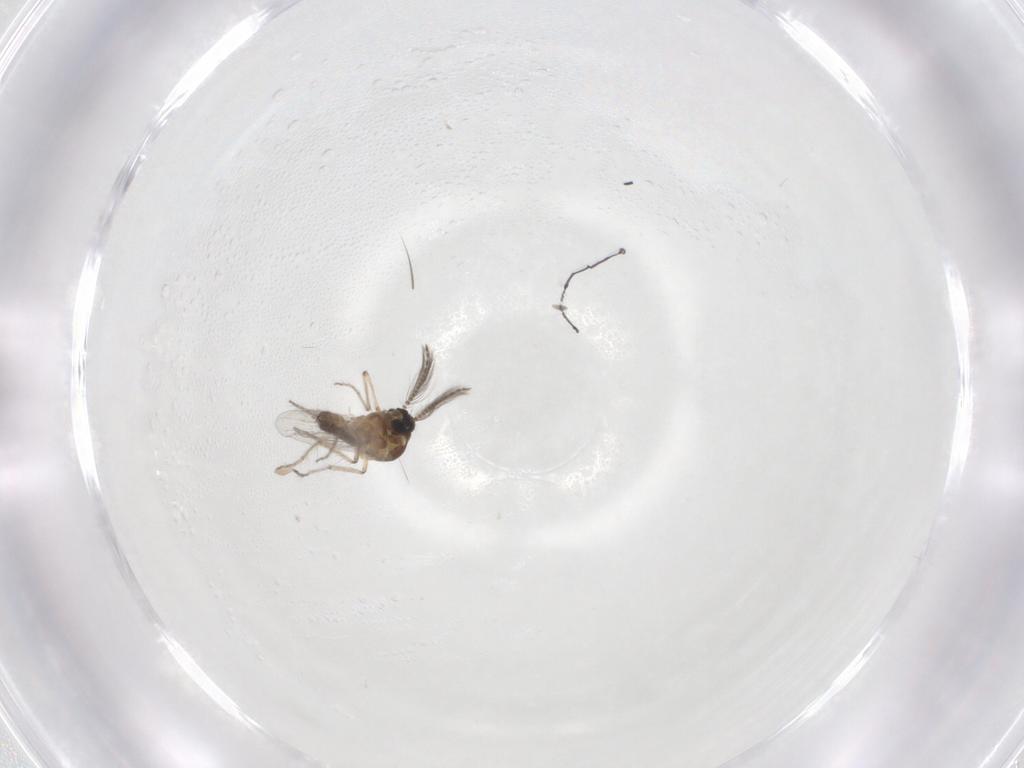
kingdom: Animalia
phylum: Arthropoda
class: Insecta
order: Diptera
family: Ceratopogonidae
